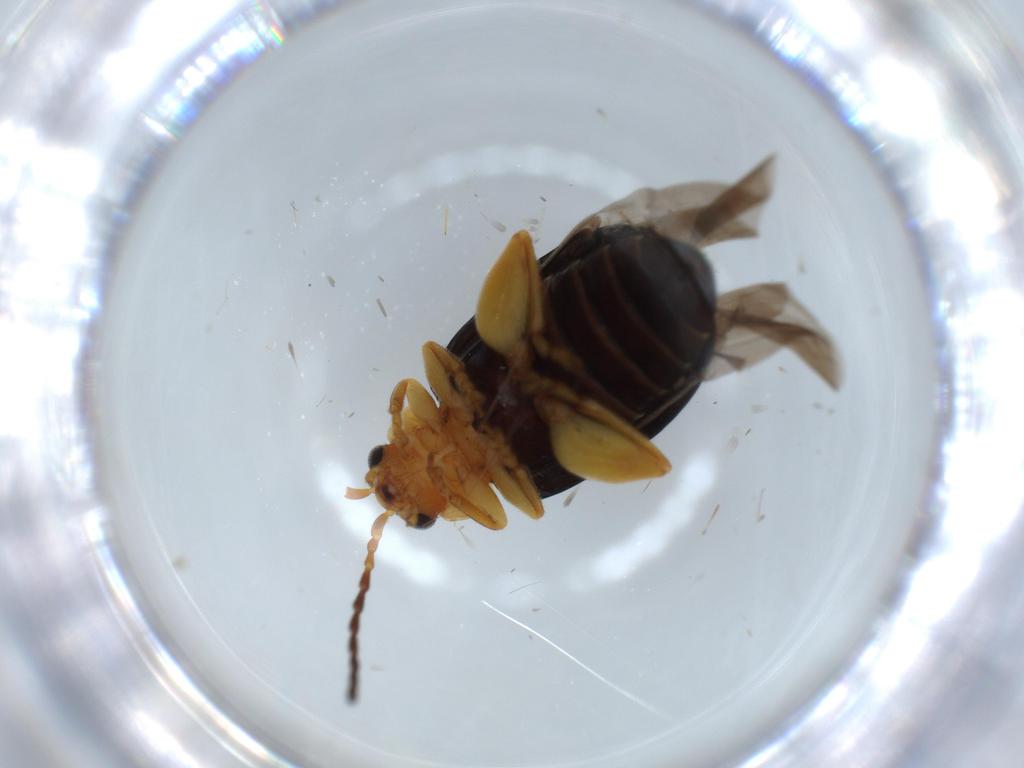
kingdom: Animalia
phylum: Arthropoda
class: Insecta
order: Coleoptera
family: Chrysomelidae
